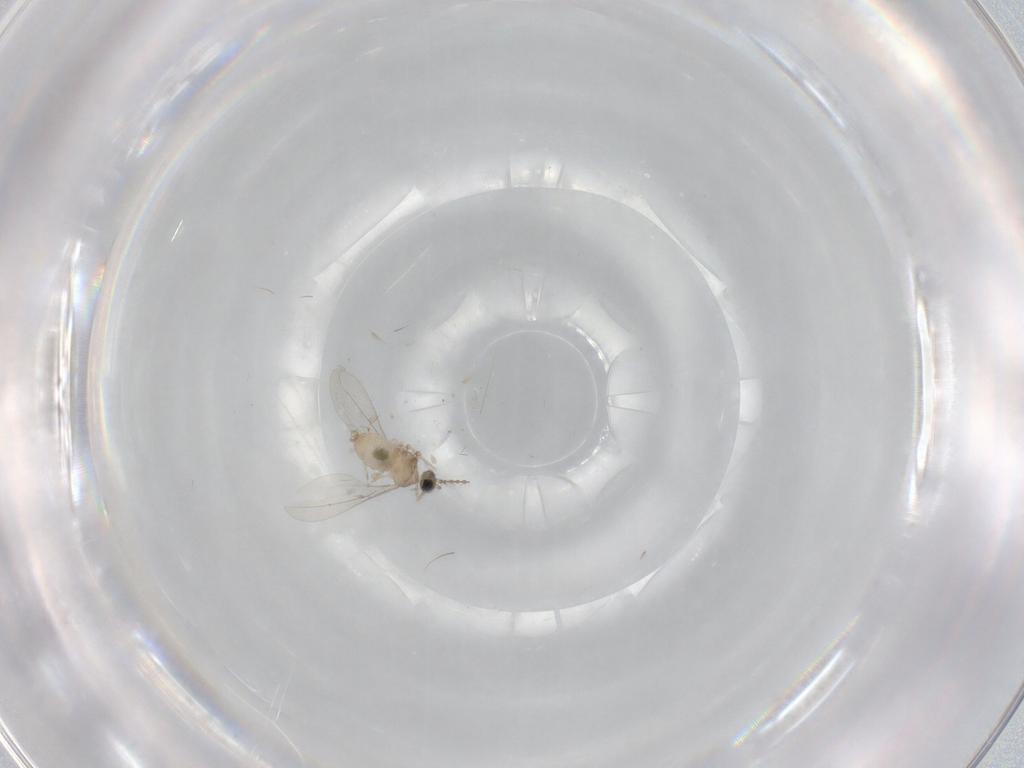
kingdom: Animalia
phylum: Arthropoda
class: Insecta
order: Diptera
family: Cecidomyiidae
